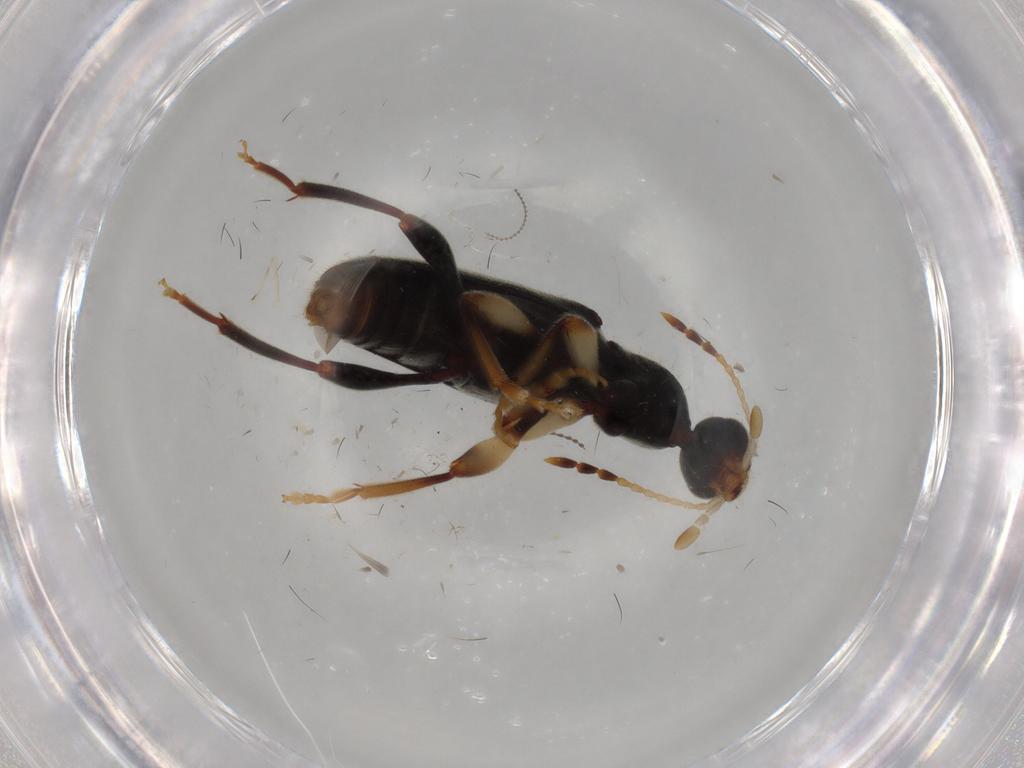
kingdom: Animalia
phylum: Arthropoda
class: Insecta
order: Coleoptera
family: Anthicidae
